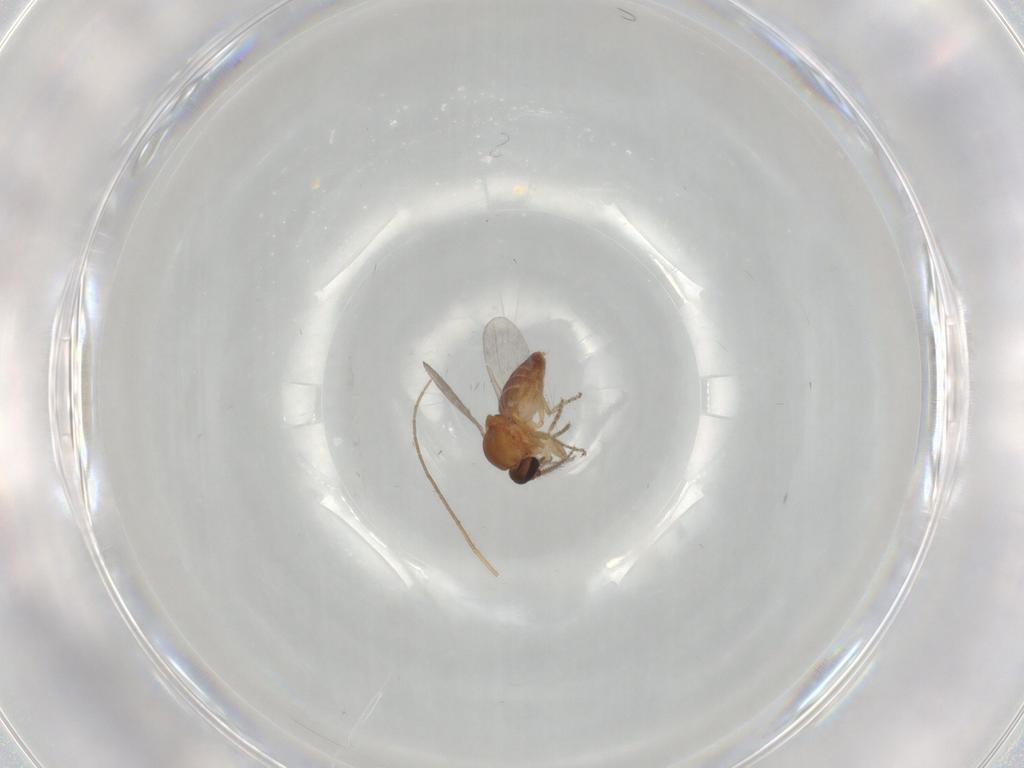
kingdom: Animalia
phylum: Arthropoda
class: Insecta
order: Diptera
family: Ceratopogonidae
